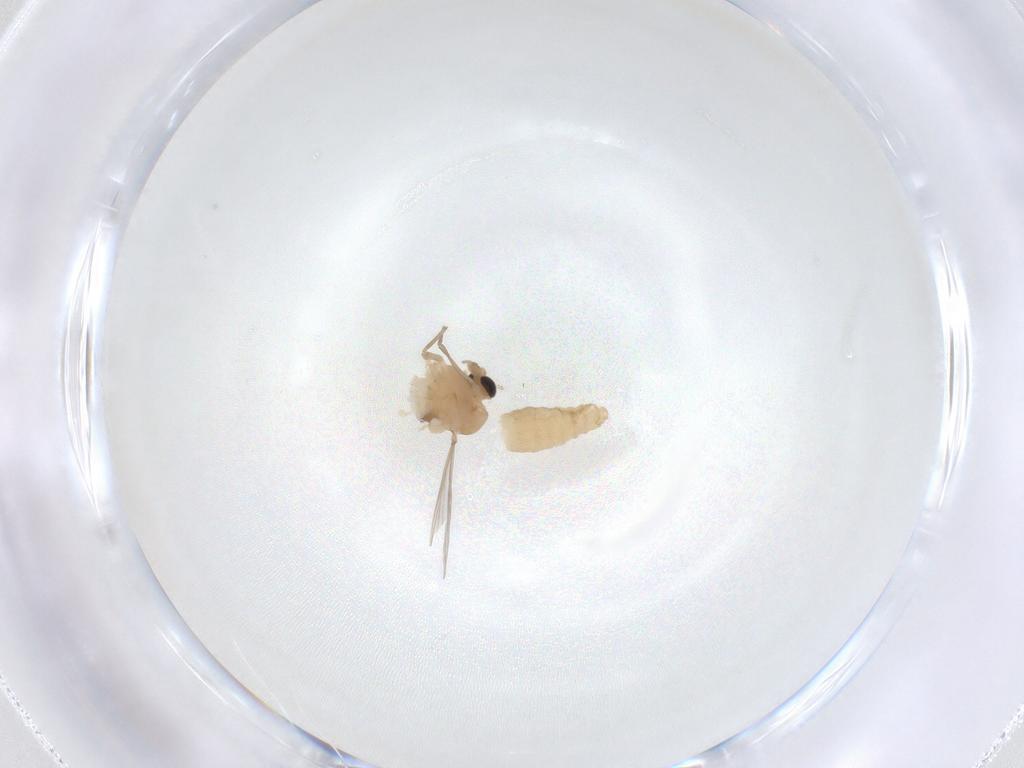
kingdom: Animalia
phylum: Arthropoda
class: Insecta
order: Diptera
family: Chironomidae
